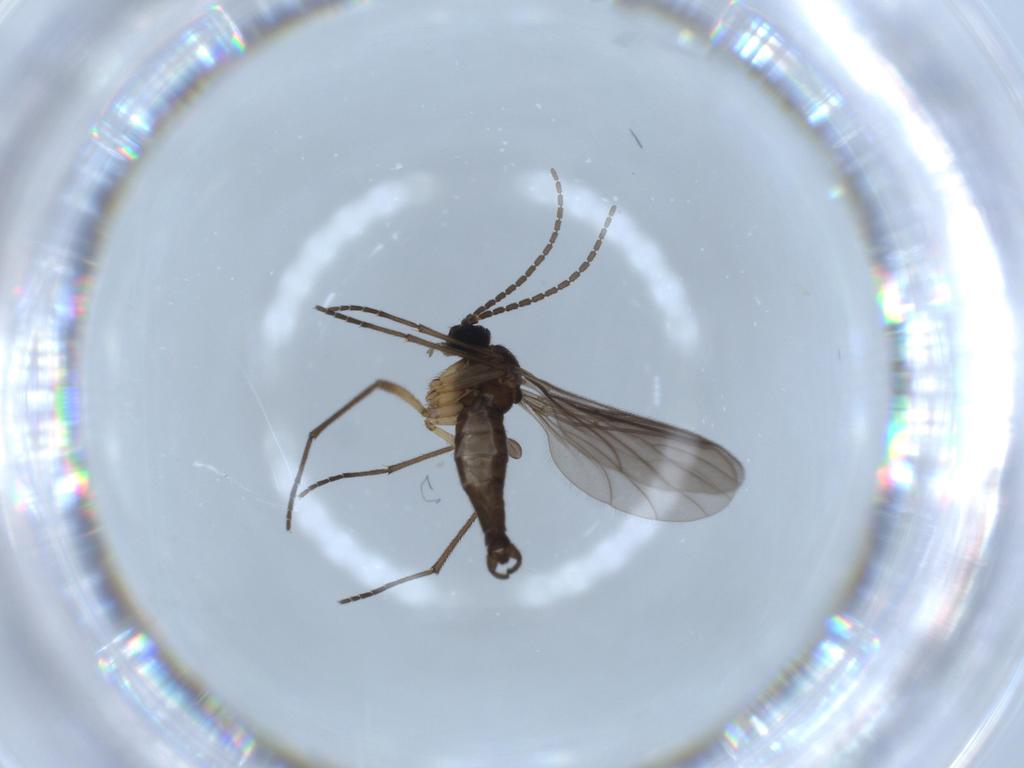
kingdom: Animalia
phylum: Arthropoda
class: Insecta
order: Diptera
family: Sciaridae
